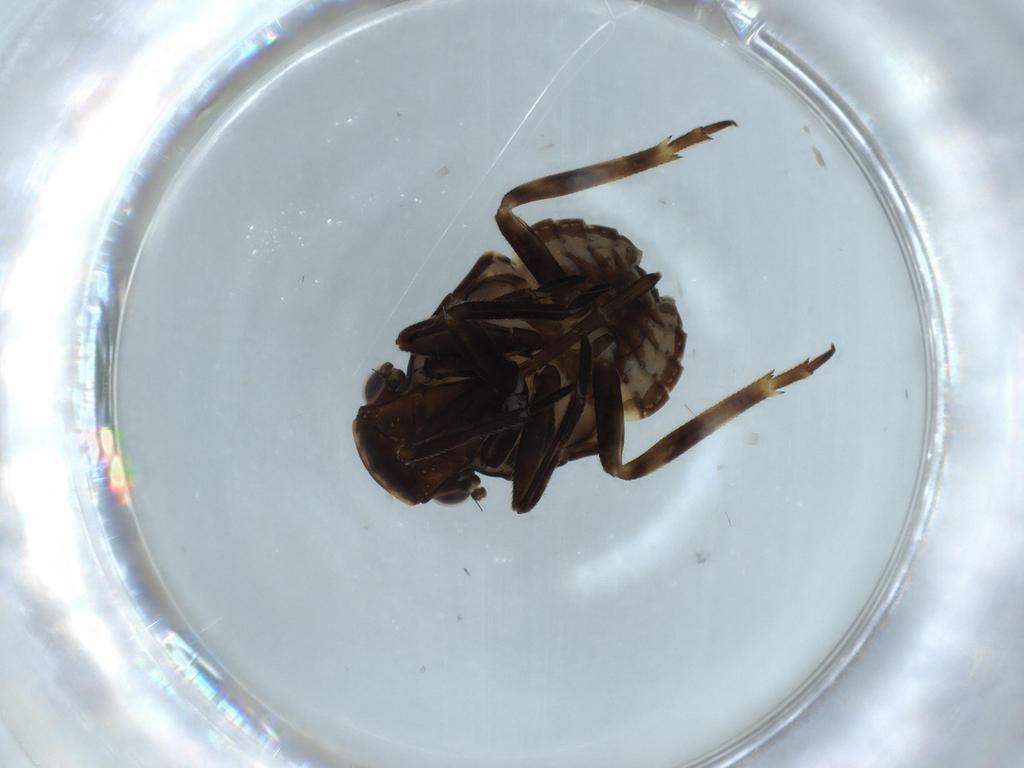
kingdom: Animalia
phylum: Arthropoda
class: Insecta
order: Hemiptera
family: Fulgoridae
